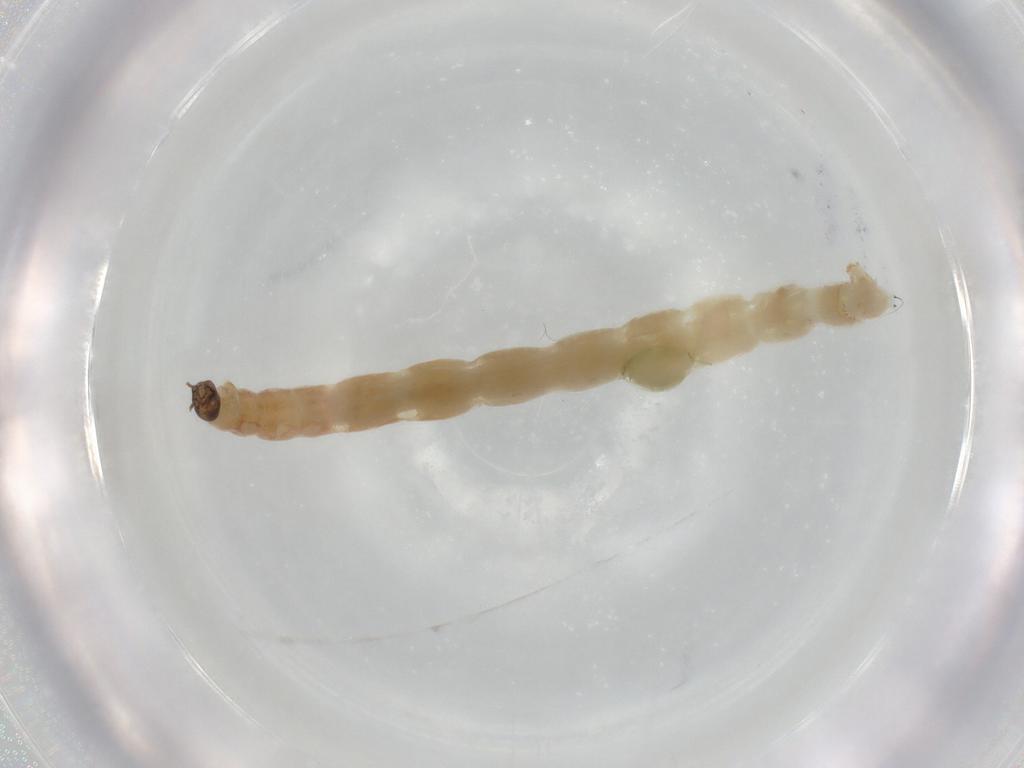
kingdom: Animalia
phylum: Arthropoda
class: Insecta
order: Diptera
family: Chironomidae
